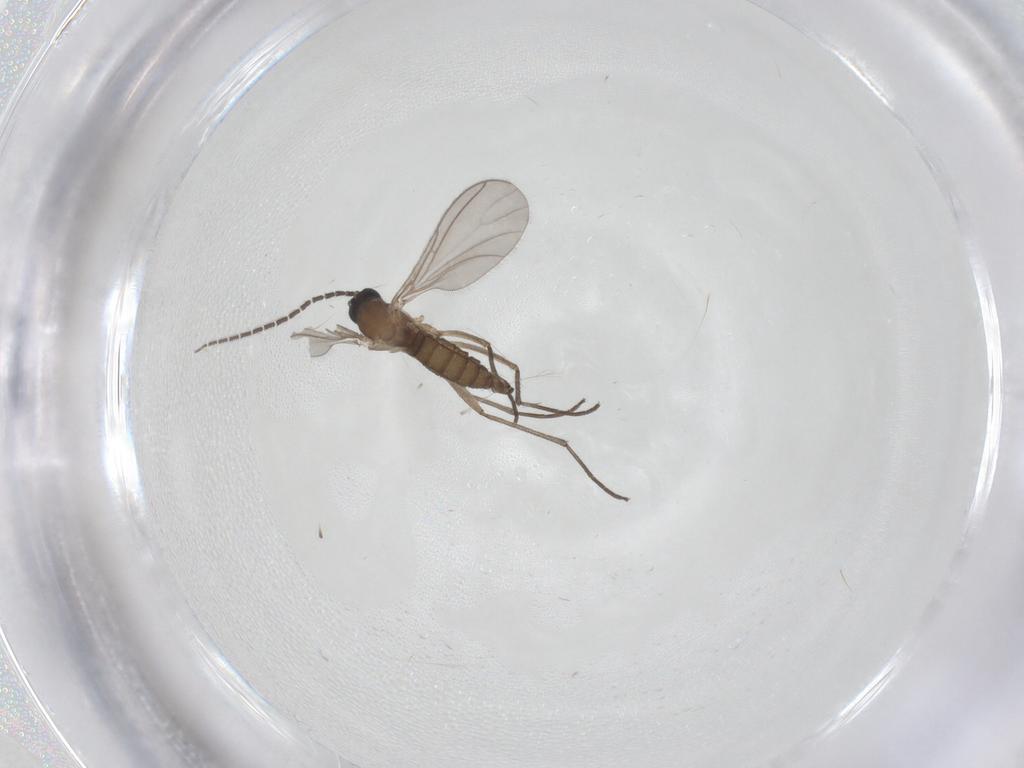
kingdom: Animalia
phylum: Arthropoda
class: Insecta
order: Diptera
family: Sciaridae
